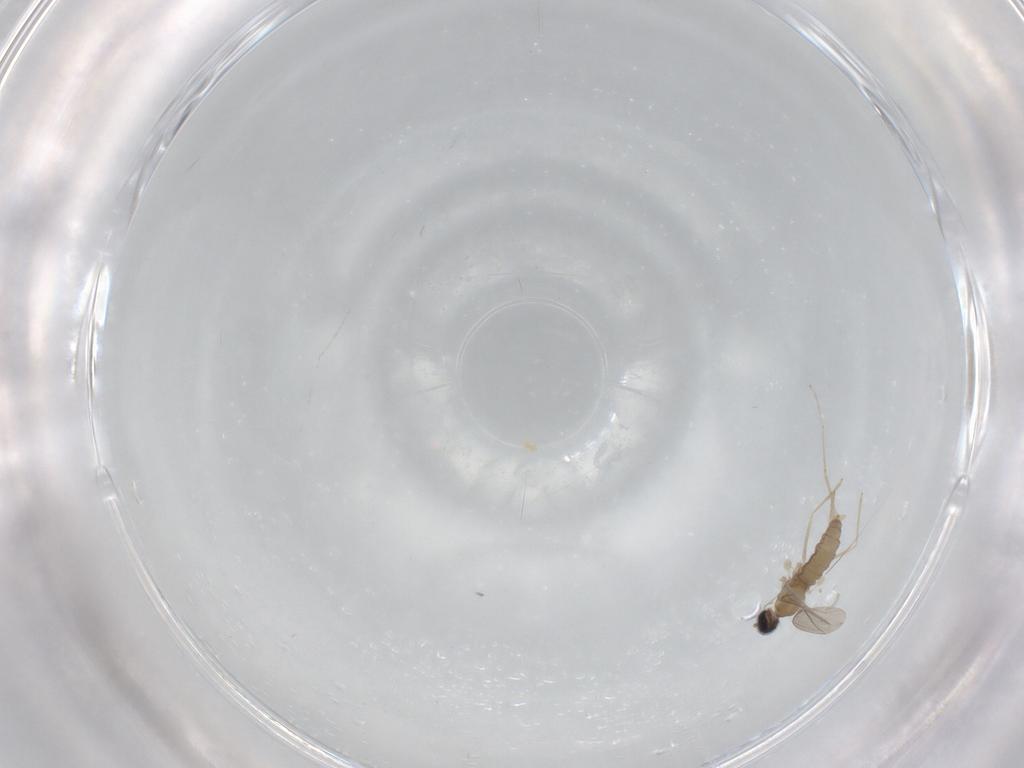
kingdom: Animalia
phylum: Arthropoda
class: Insecta
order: Diptera
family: Cecidomyiidae
